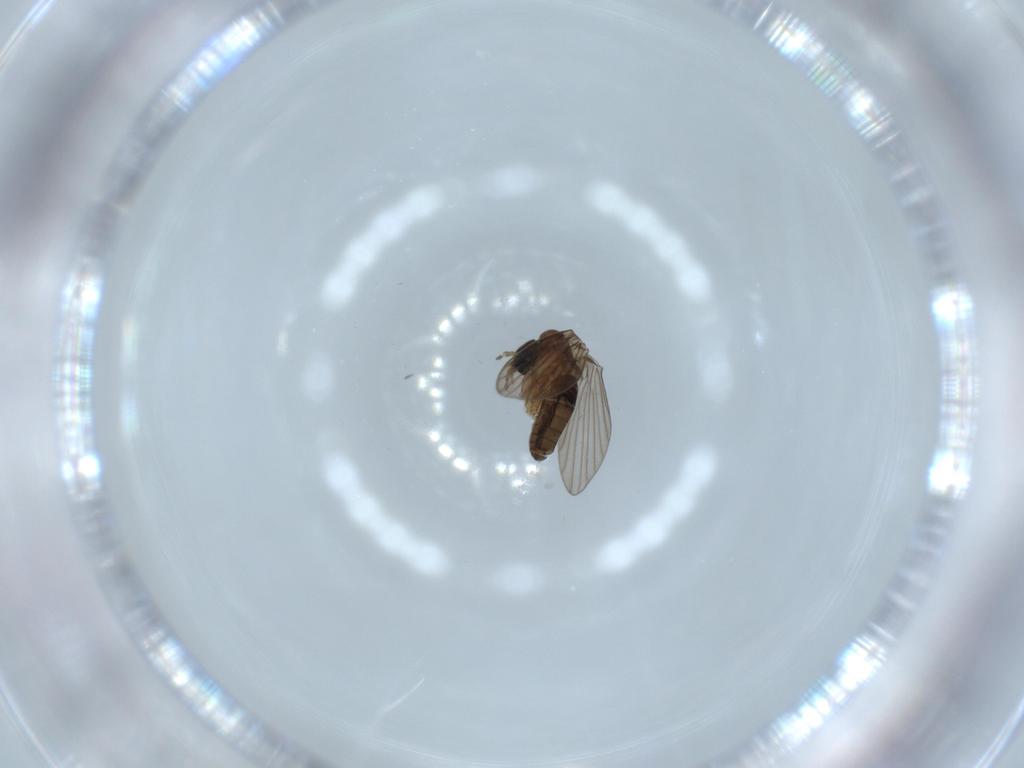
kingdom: Animalia
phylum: Arthropoda
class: Insecta
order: Diptera
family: Psychodidae
